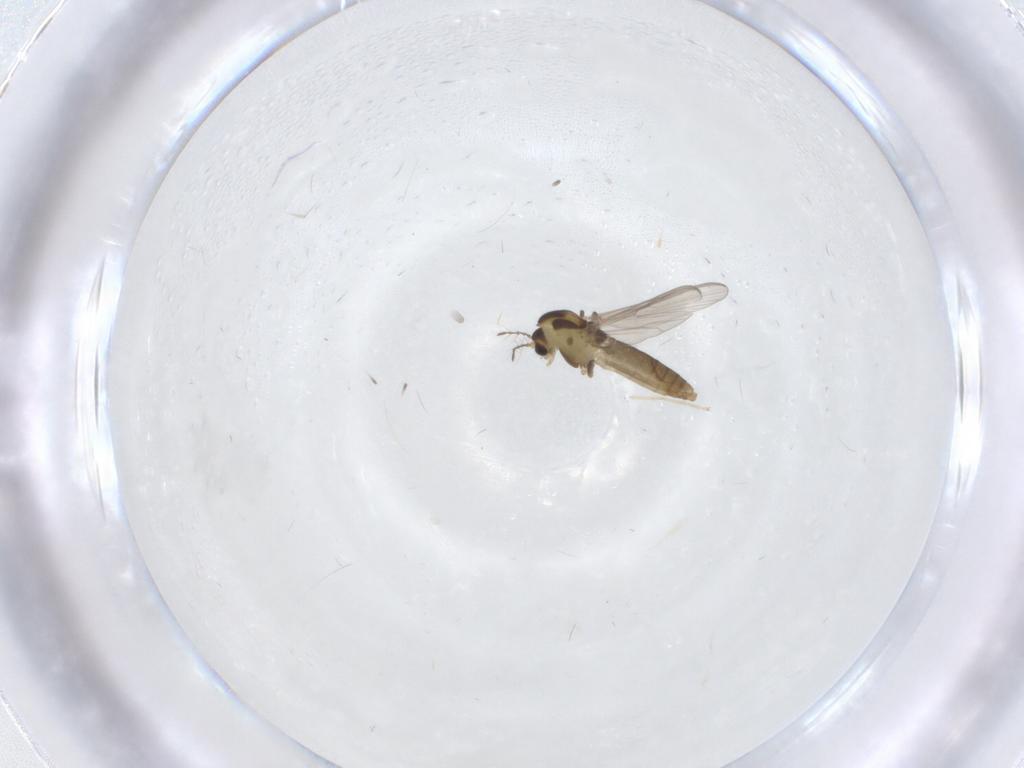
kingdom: Animalia
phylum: Arthropoda
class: Insecta
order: Diptera
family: Chironomidae
